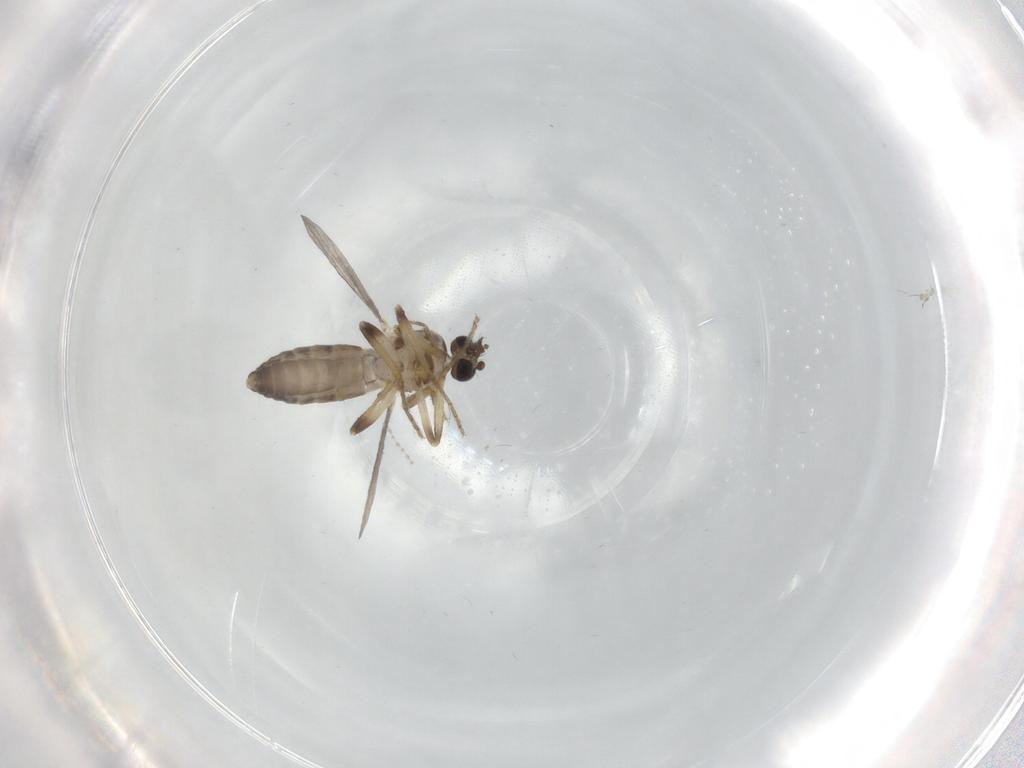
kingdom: Animalia
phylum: Arthropoda
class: Insecta
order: Diptera
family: Ceratopogonidae
